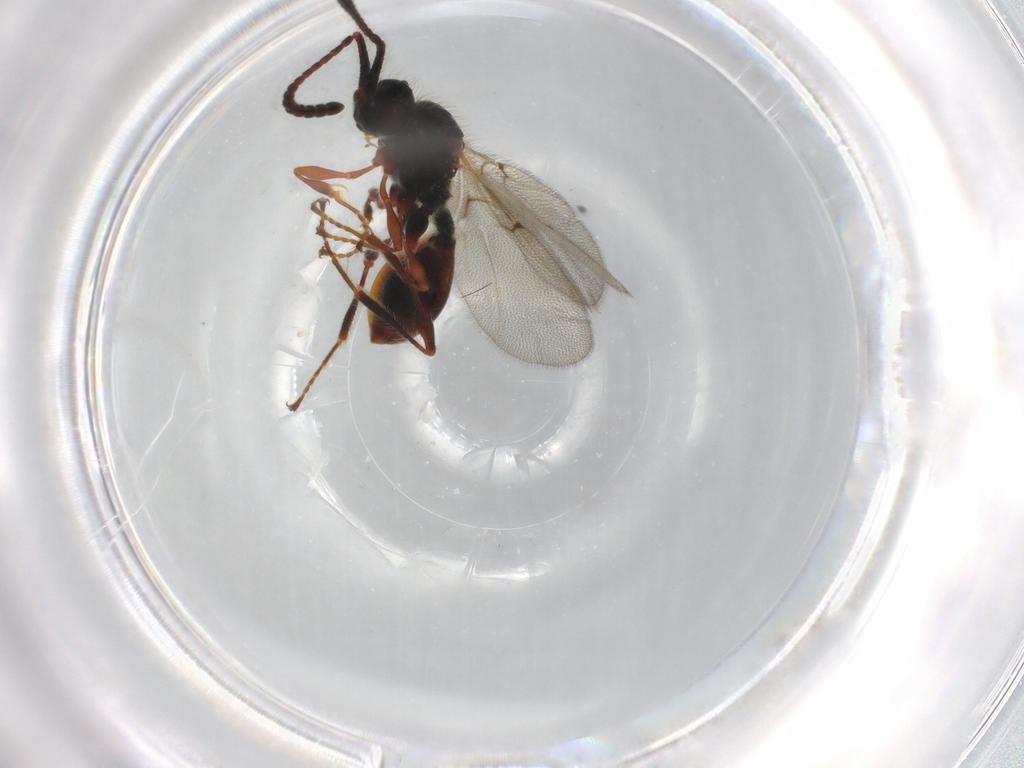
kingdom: Animalia
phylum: Arthropoda
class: Insecta
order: Hymenoptera
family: Diapriidae
